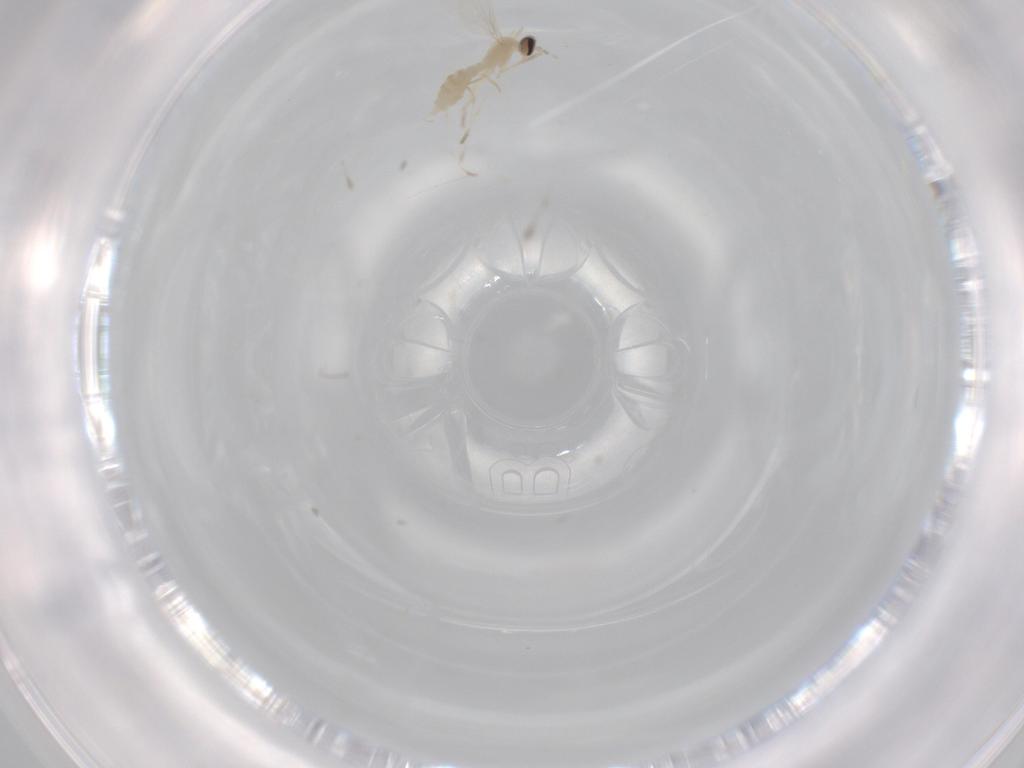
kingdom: Animalia
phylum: Arthropoda
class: Insecta
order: Diptera
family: Cecidomyiidae
